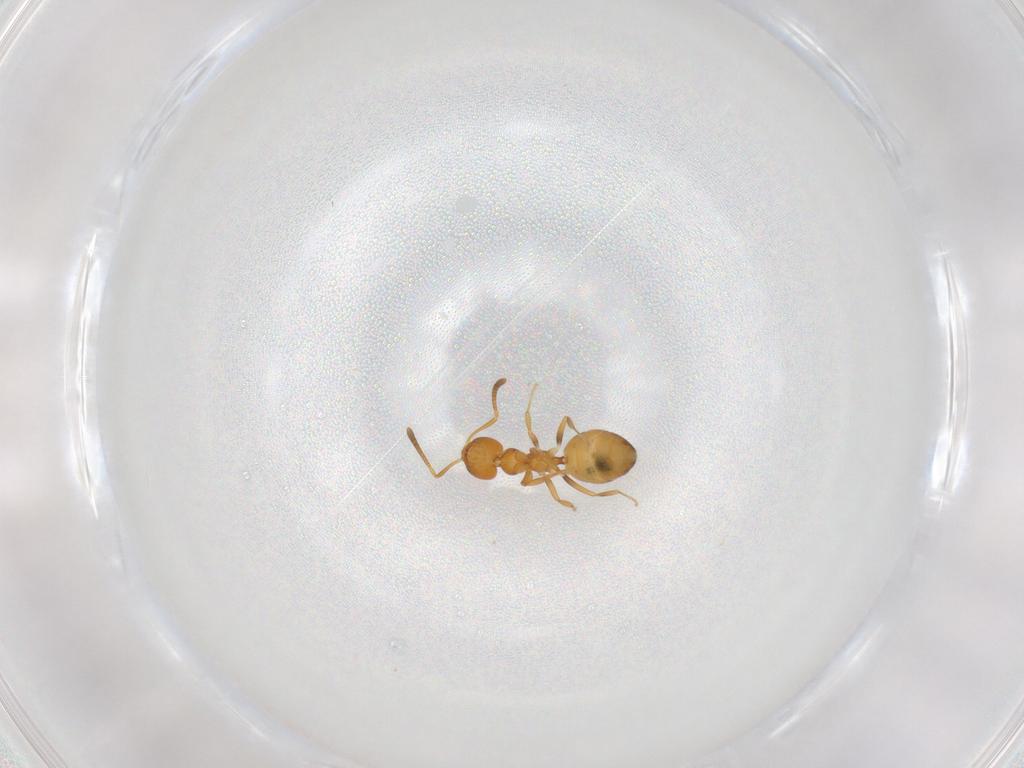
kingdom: Animalia
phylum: Arthropoda
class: Insecta
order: Hymenoptera
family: Formicidae
